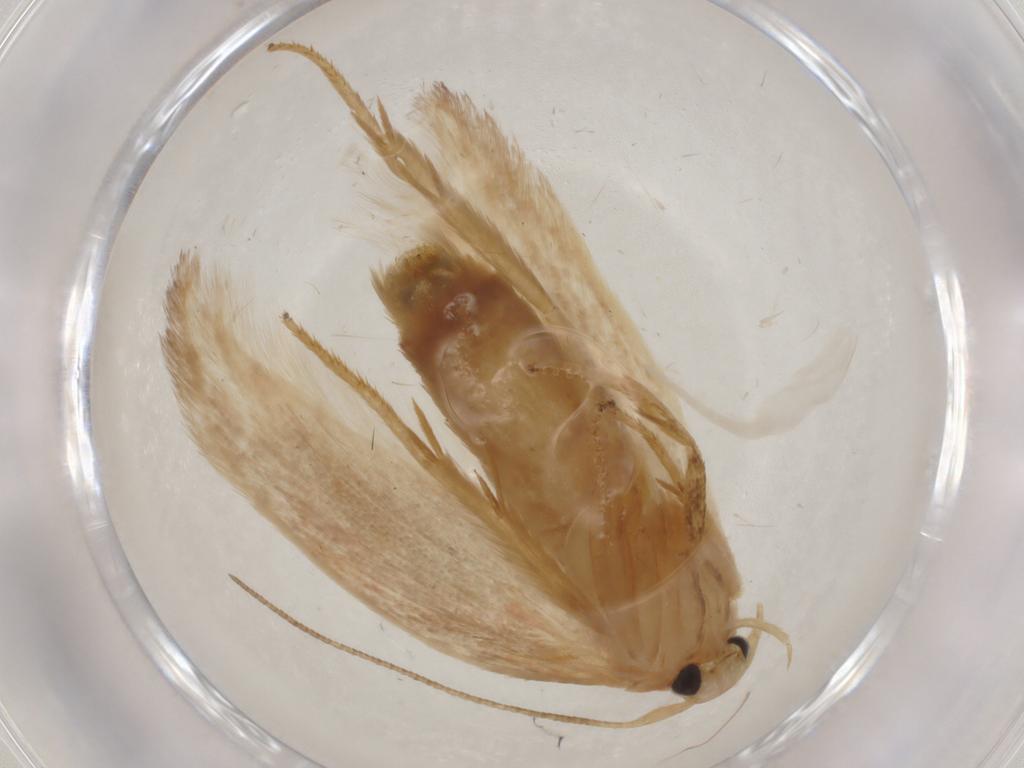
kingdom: Animalia
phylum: Arthropoda
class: Insecta
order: Lepidoptera
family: Geometridae
